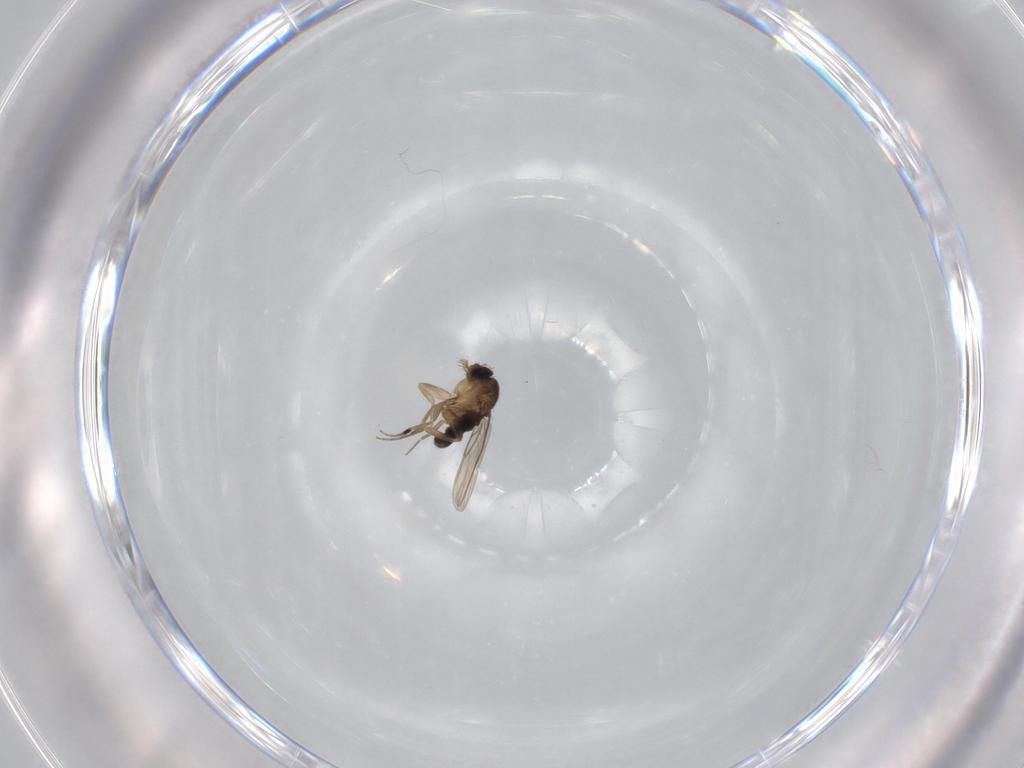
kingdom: Animalia
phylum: Arthropoda
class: Insecta
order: Diptera
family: Phoridae
